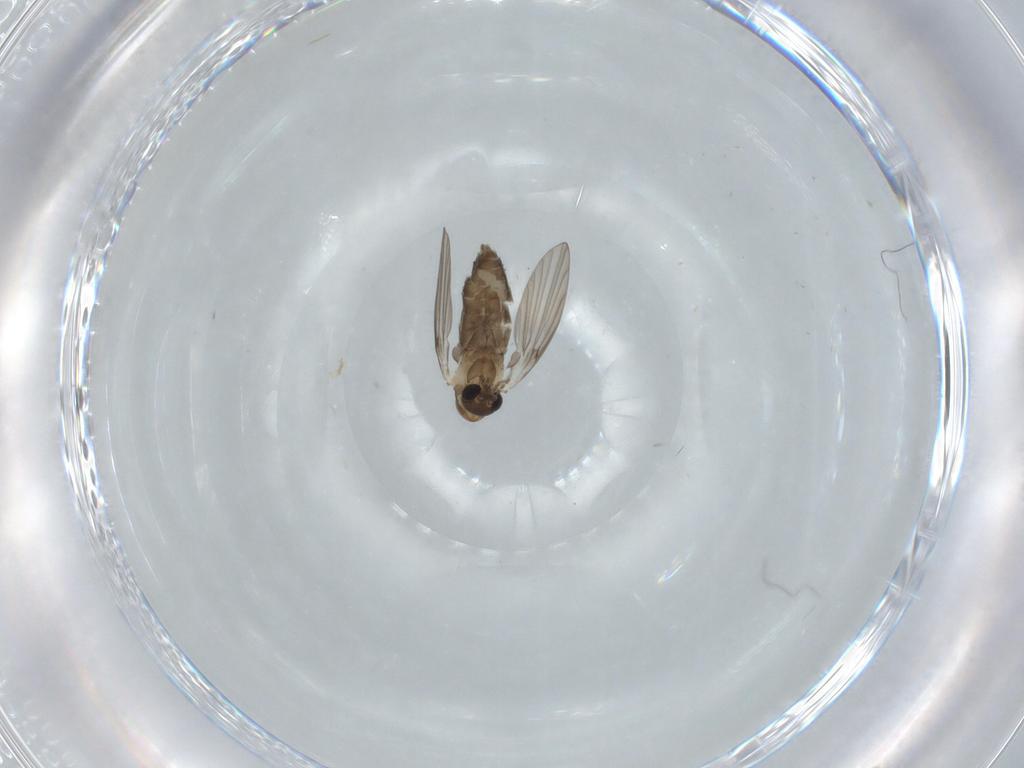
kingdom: Animalia
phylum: Arthropoda
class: Insecta
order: Diptera
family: Psychodidae
